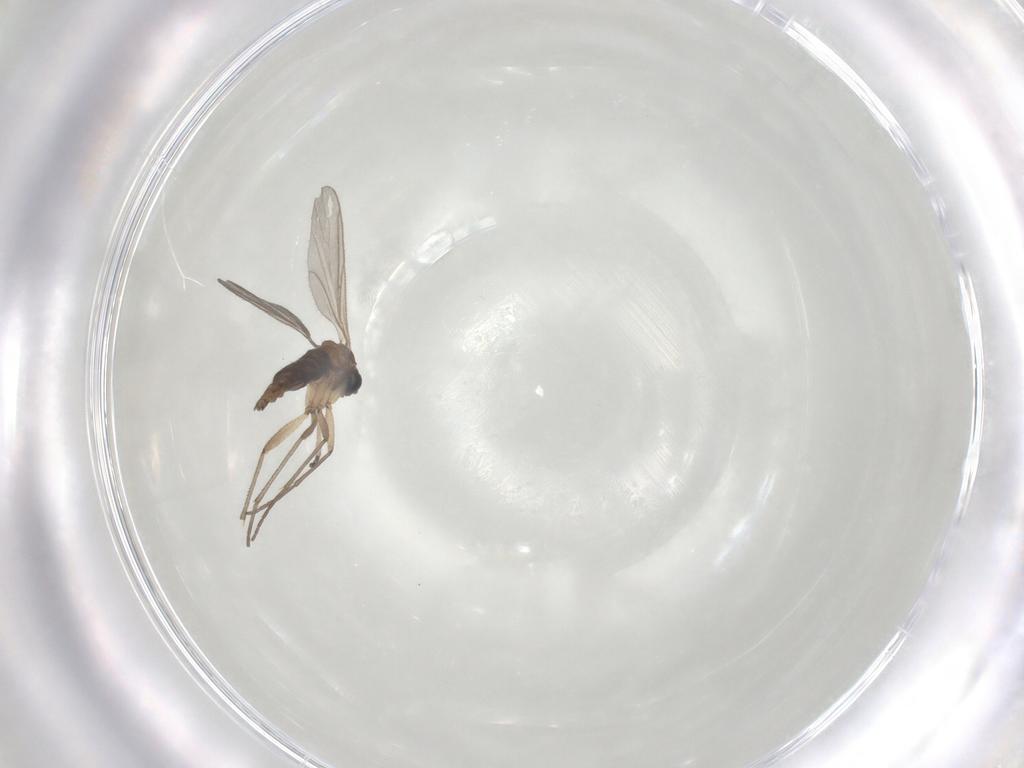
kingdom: Animalia
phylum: Arthropoda
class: Insecta
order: Diptera
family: Sciaridae
